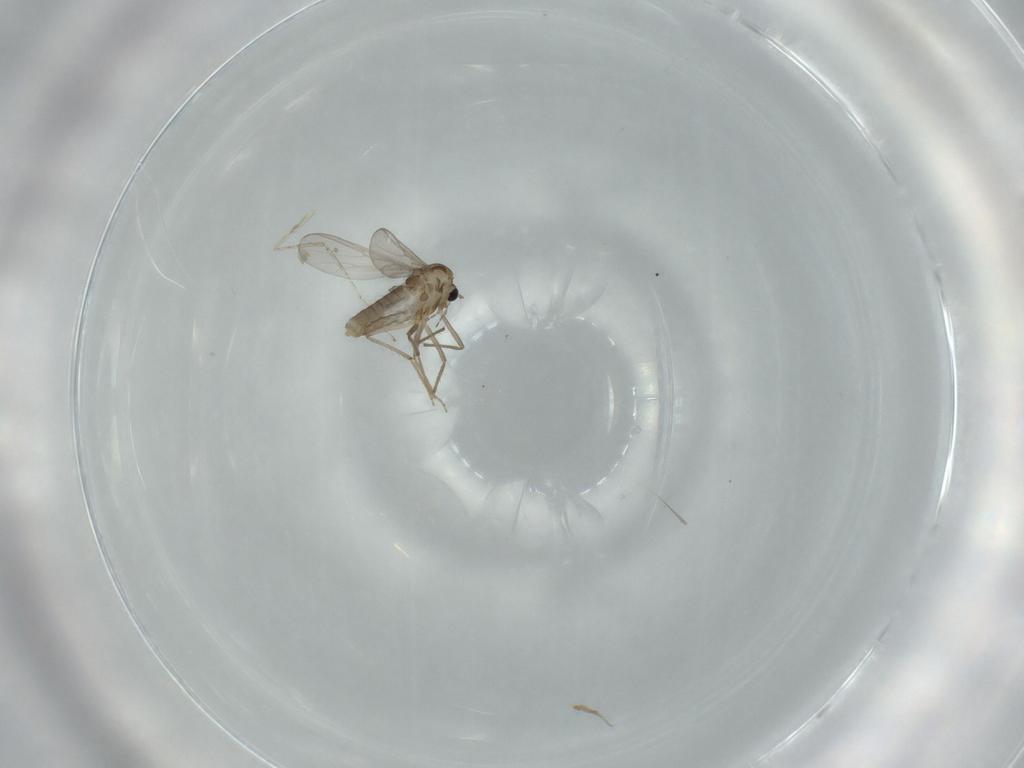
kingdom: Animalia
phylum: Arthropoda
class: Insecta
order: Diptera
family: Chironomidae
